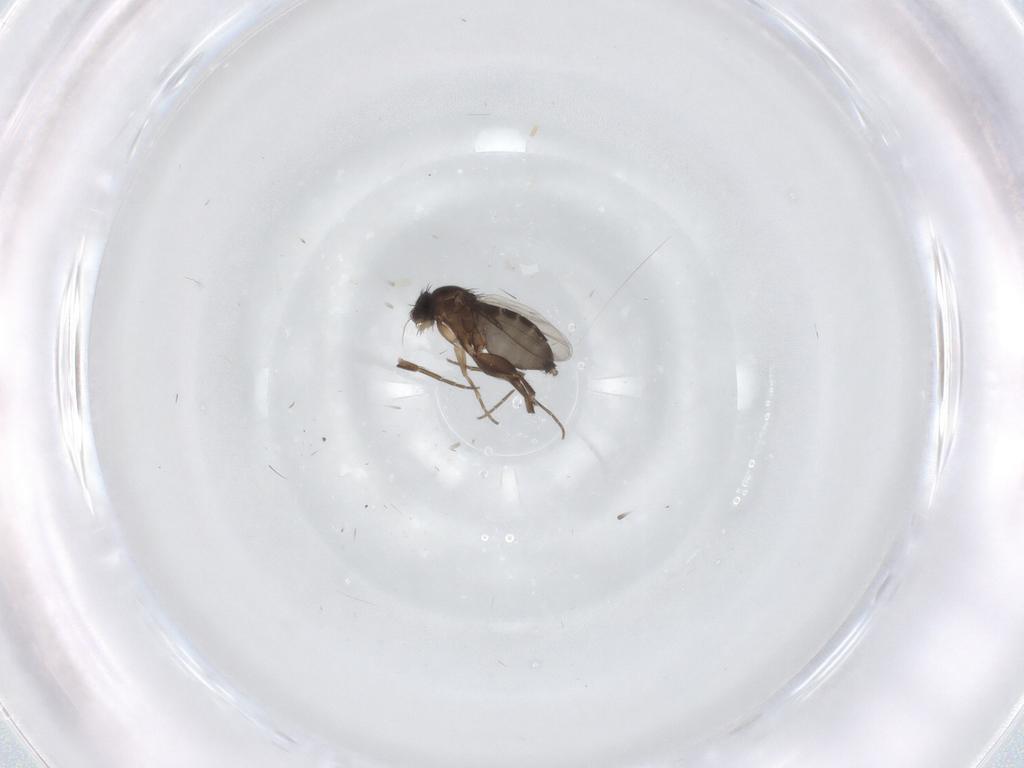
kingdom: Animalia
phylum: Arthropoda
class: Insecta
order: Diptera
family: Phoridae
